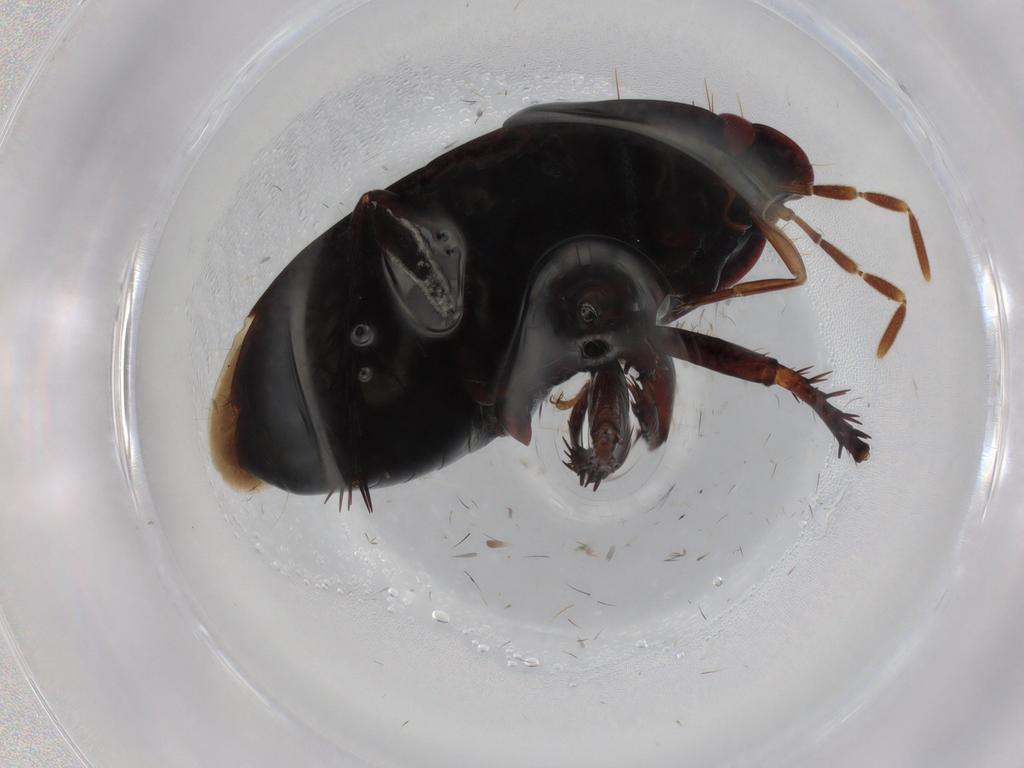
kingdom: Animalia
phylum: Arthropoda
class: Insecta
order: Hemiptera
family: Cydnidae
